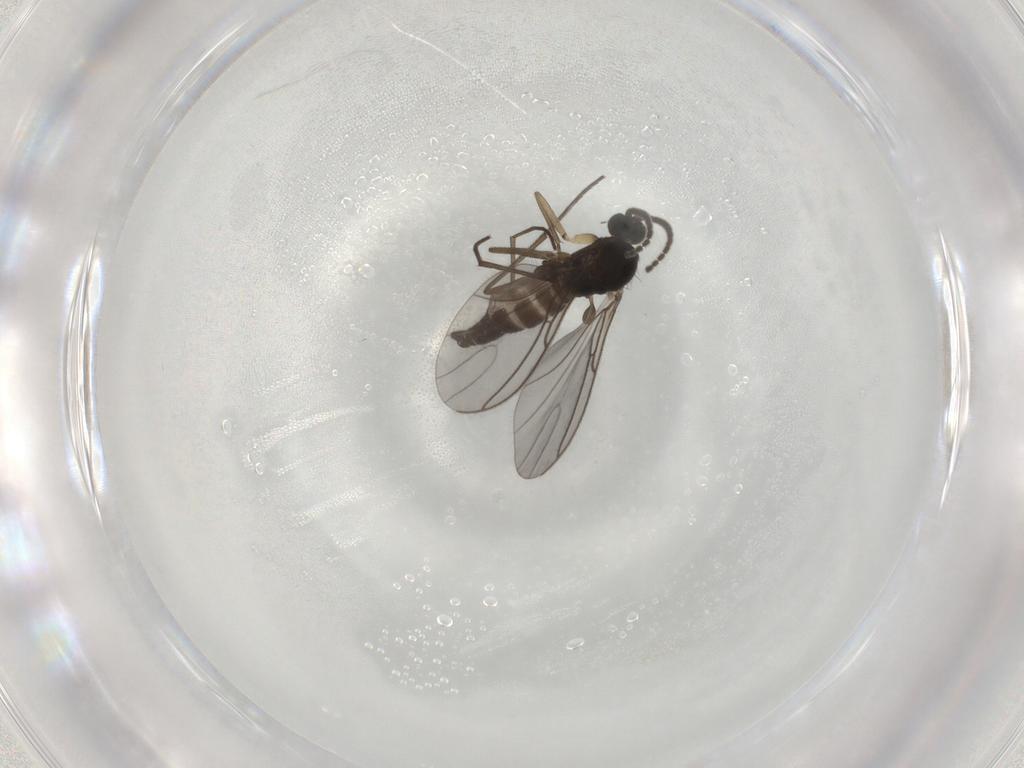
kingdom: Animalia
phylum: Arthropoda
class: Insecta
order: Diptera
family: Sciaridae
